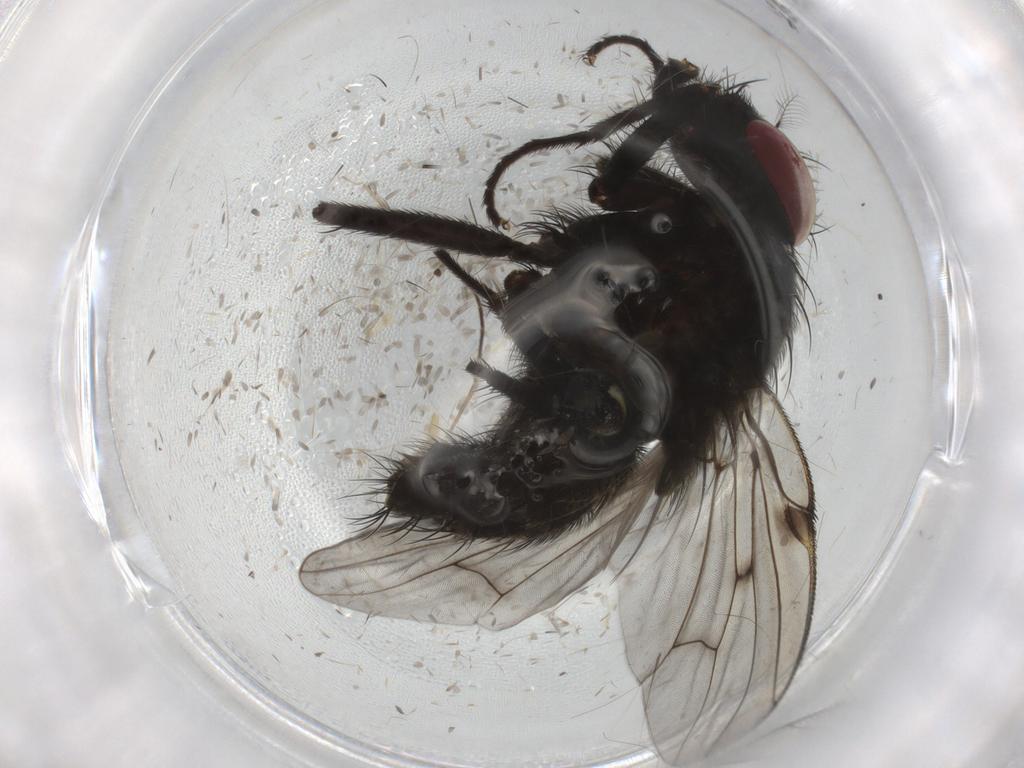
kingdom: Animalia
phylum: Arthropoda
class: Insecta
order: Diptera
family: Muscidae
